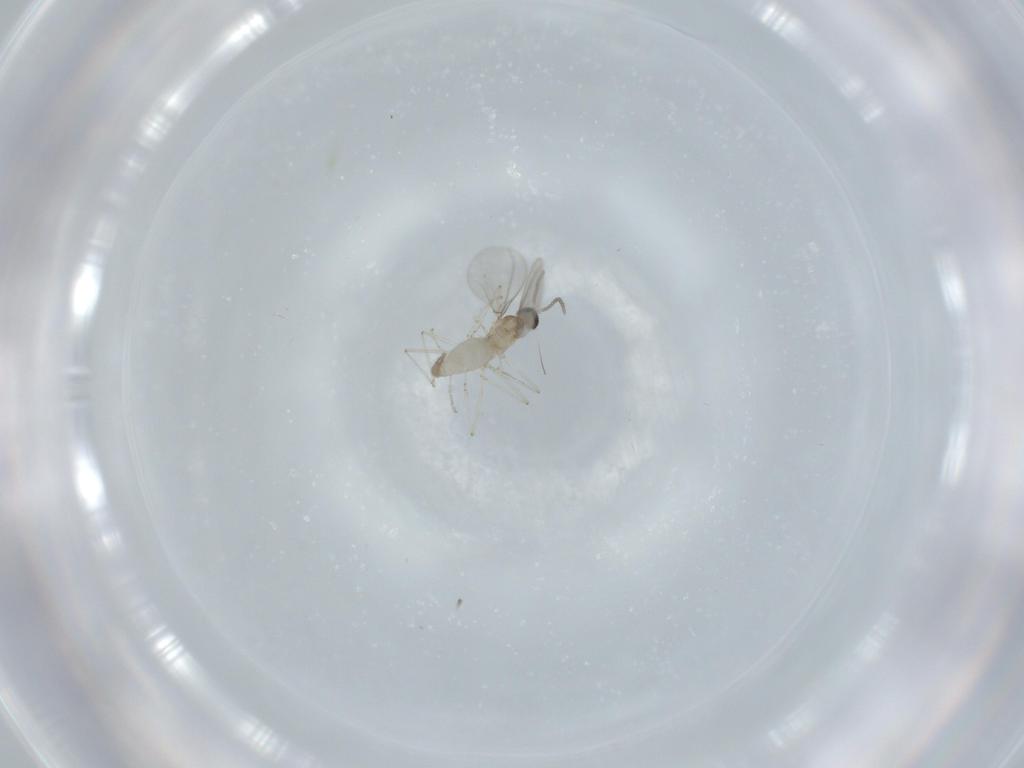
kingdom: Animalia
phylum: Arthropoda
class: Insecta
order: Diptera
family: Cecidomyiidae
